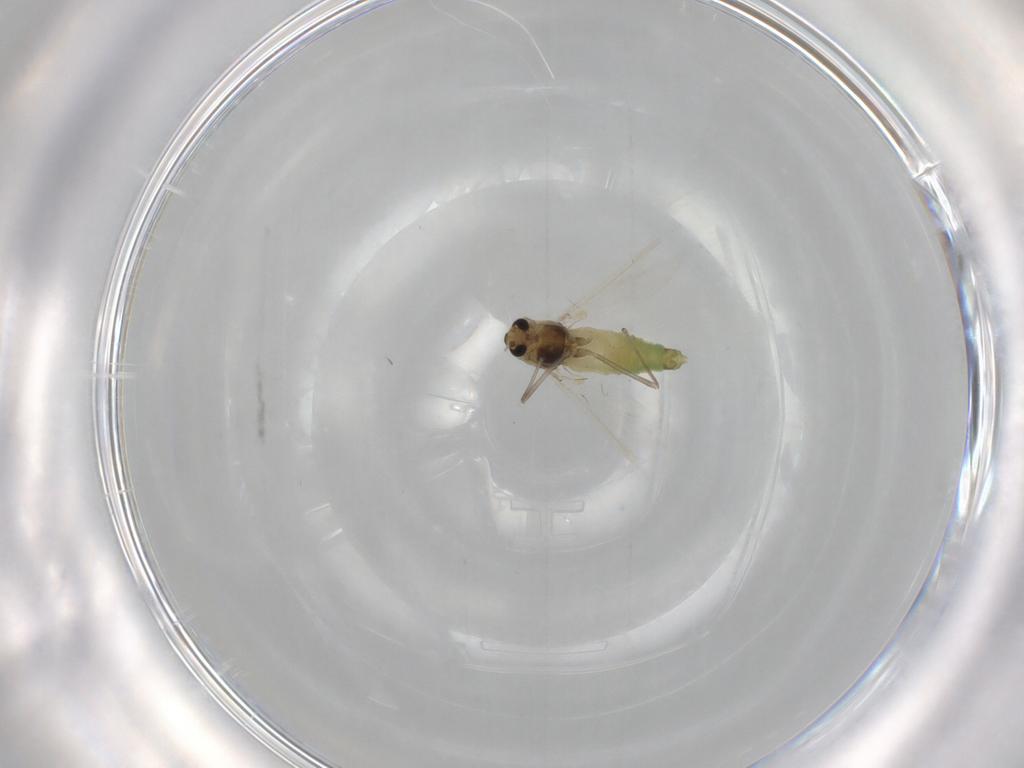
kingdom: Animalia
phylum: Arthropoda
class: Insecta
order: Diptera
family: Chironomidae
